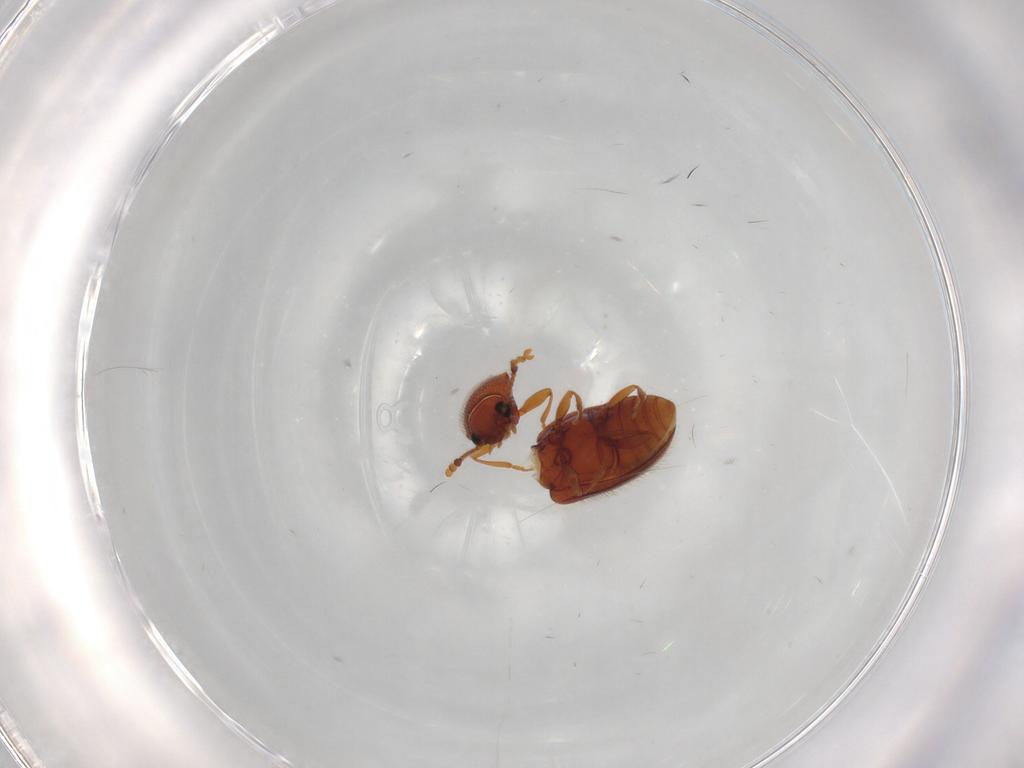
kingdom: Animalia
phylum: Arthropoda
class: Insecta
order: Coleoptera
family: Erotylidae
